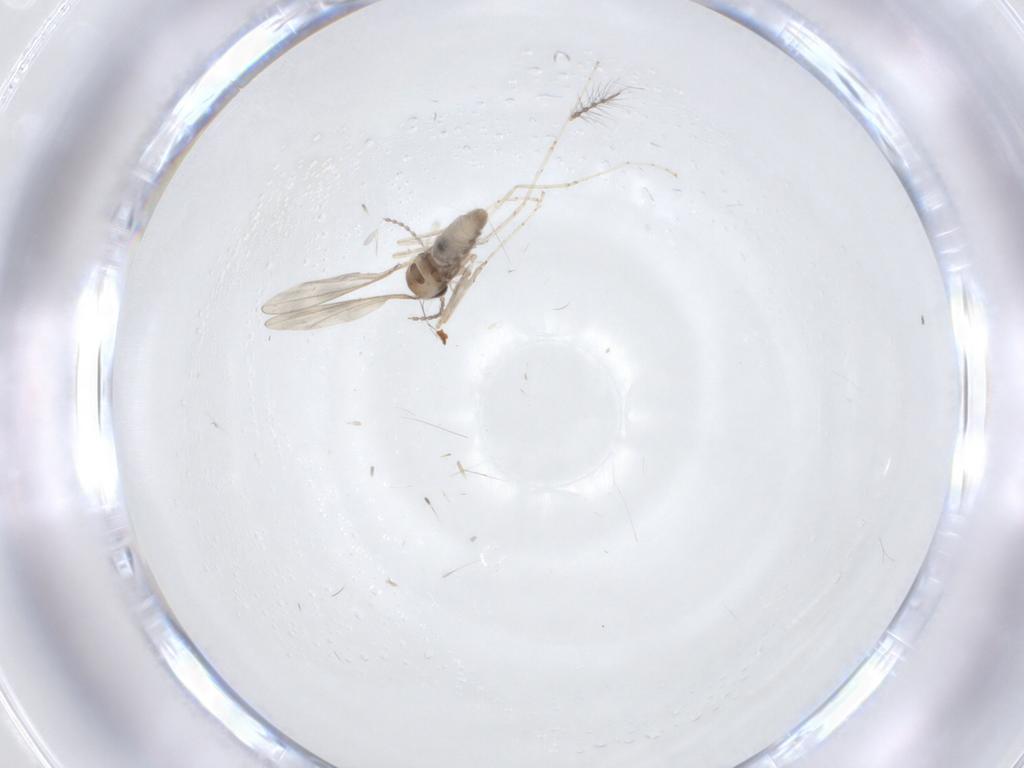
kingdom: Animalia
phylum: Arthropoda
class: Insecta
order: Diptera
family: Cecidomyiidae
